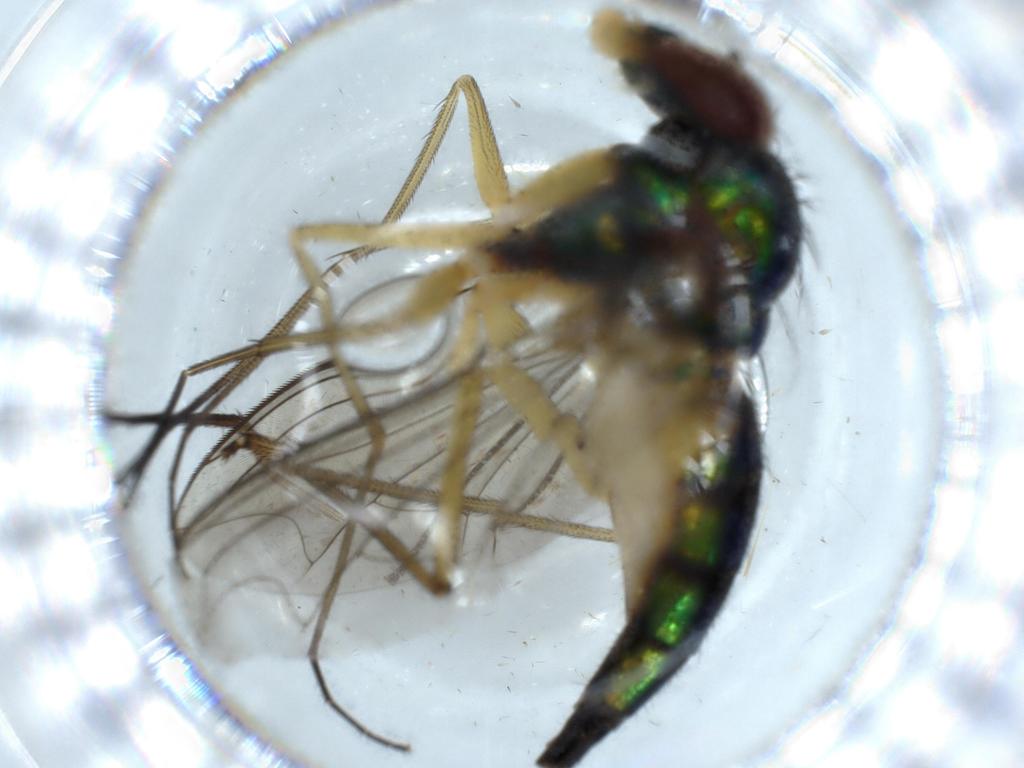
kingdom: Animalia
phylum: Arthropoda
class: Insecta
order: Diptera
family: Dolichopodidae
